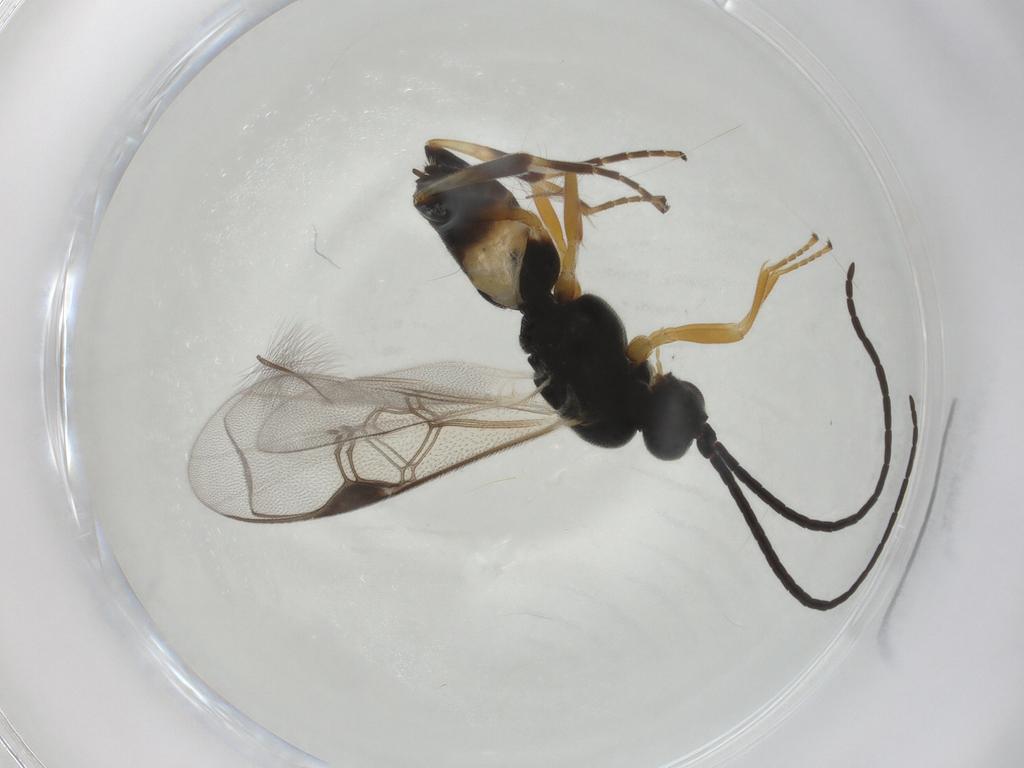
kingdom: Animalia
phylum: Arthropoda
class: Insecta
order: Hymenoptera
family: Braconidae
